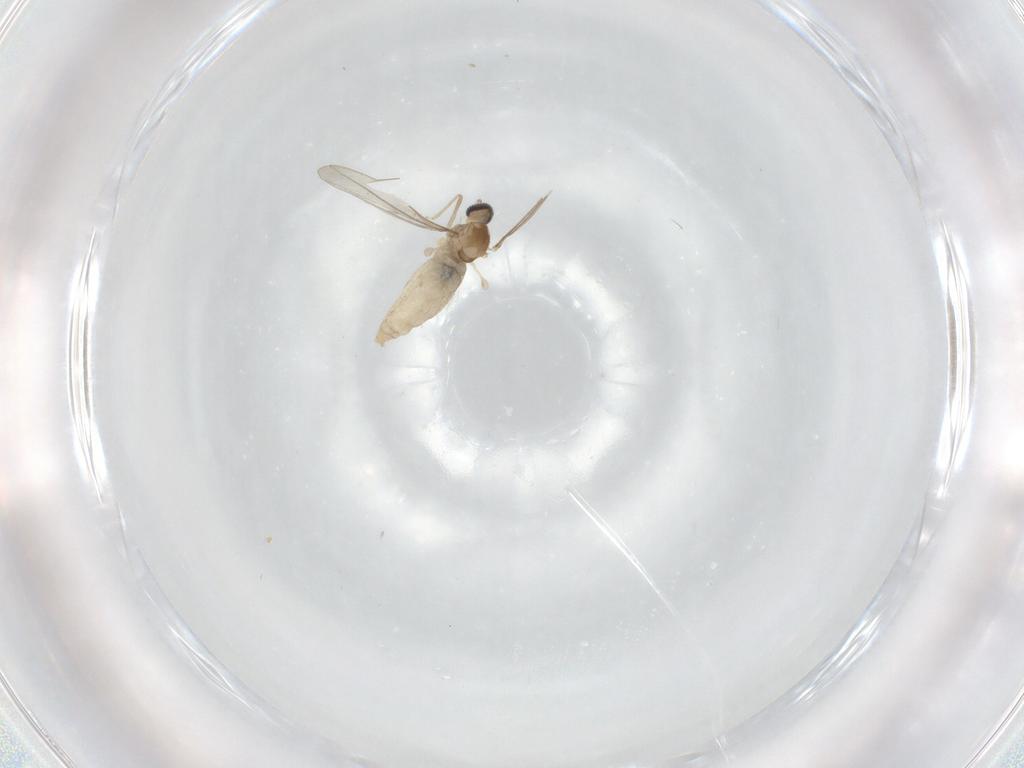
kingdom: Animalia
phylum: Arthropoda
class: Insecta
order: Diptera
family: Cecidomyiidae
